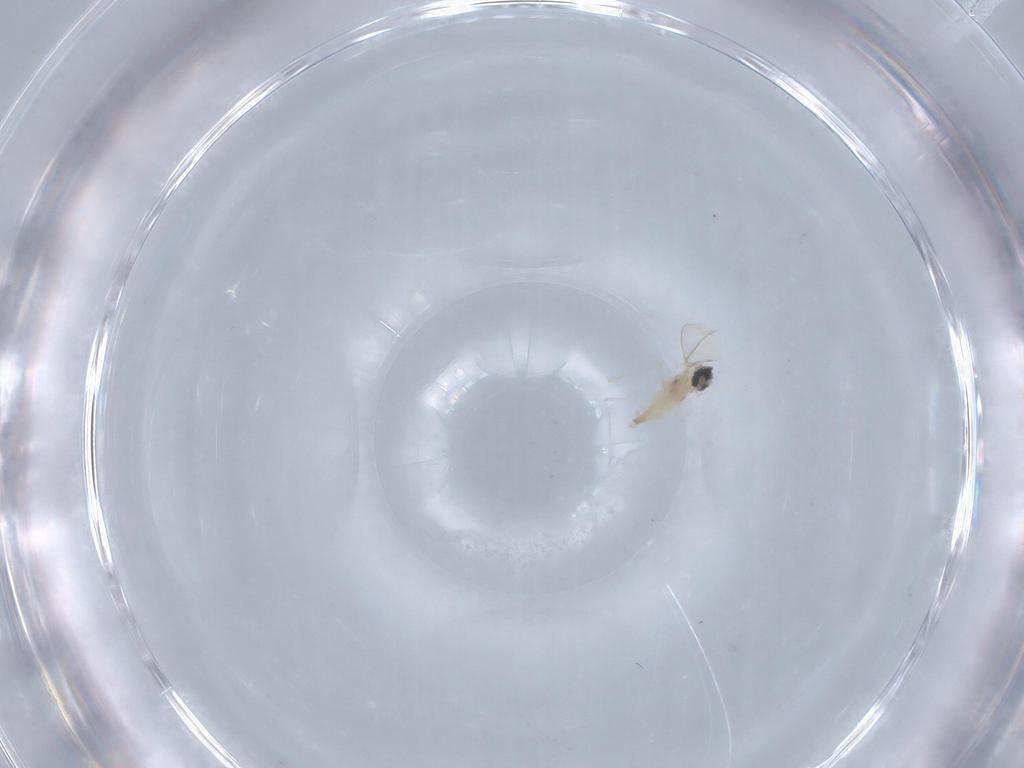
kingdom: Animalia
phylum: Arthropoda
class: Insecta
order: Diptera
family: Cecidomyiidae
